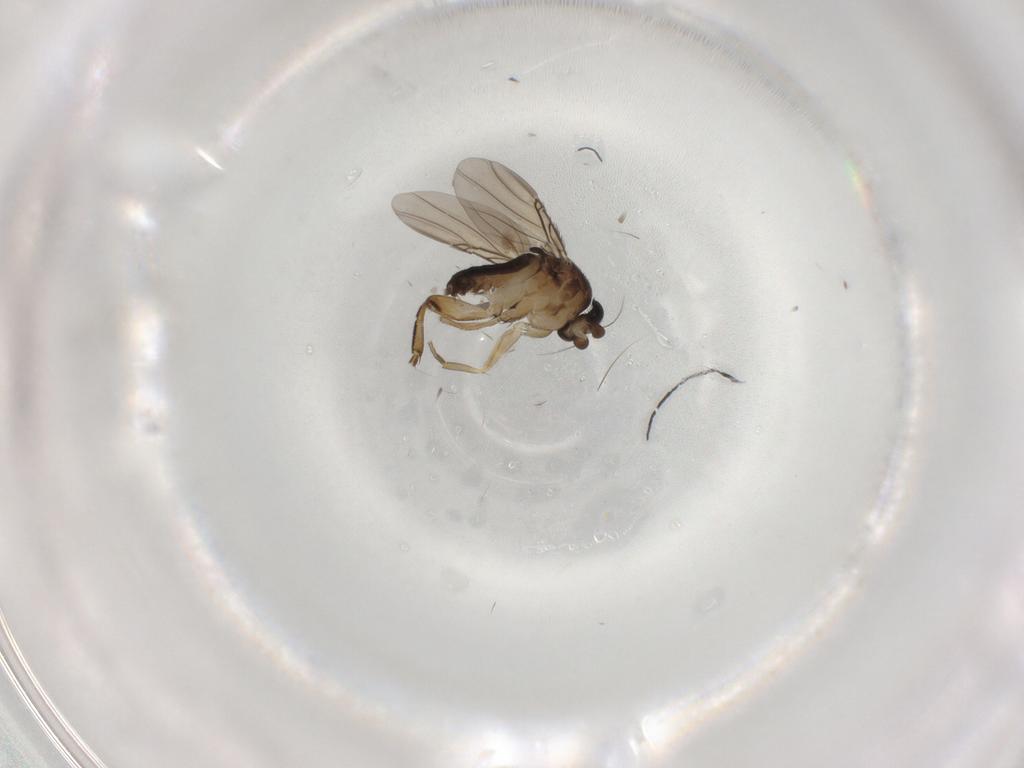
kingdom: Animalia
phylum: Arthropoda
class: Insecta
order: Diptera
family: Phoridae
